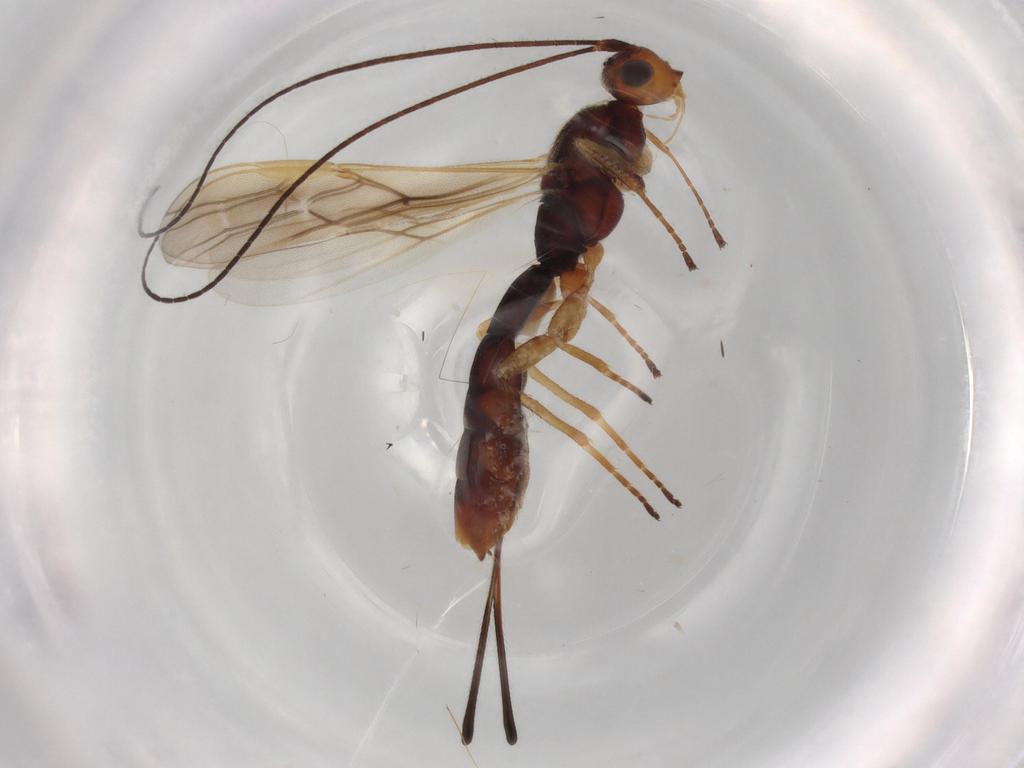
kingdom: Animalia
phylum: Arthropoda
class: Insecta
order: Hymenoptera
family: Braconidae
